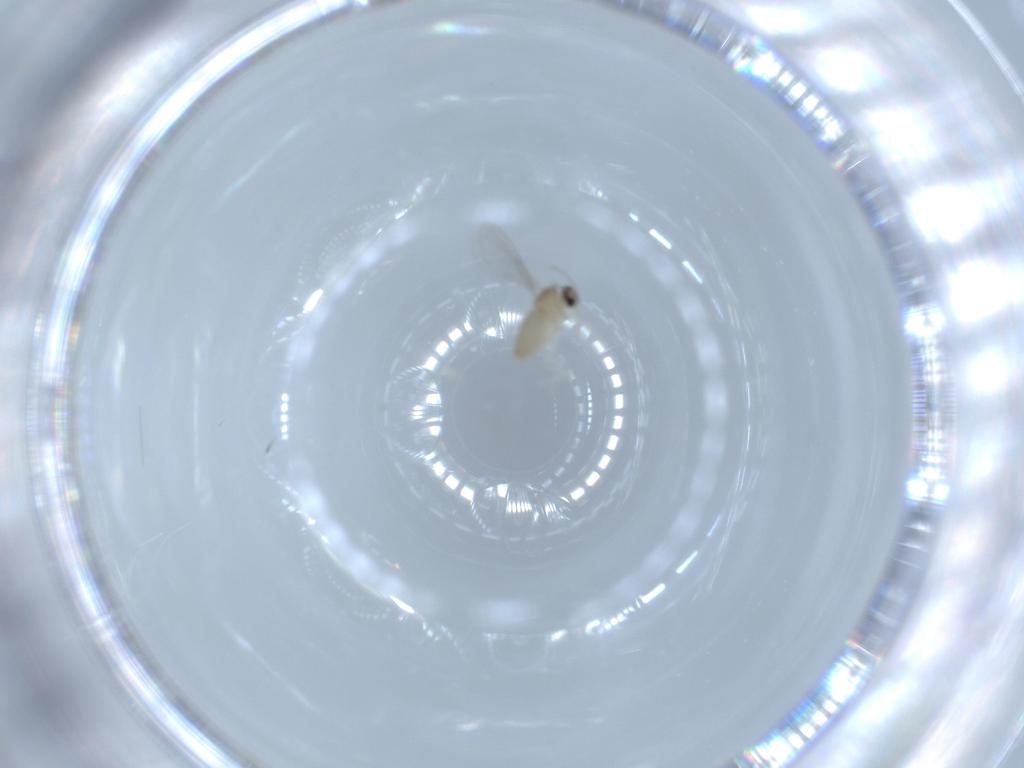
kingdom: Animalia
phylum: Arthropoda
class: Insecta
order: Diptera
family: Cecidomyiidae
